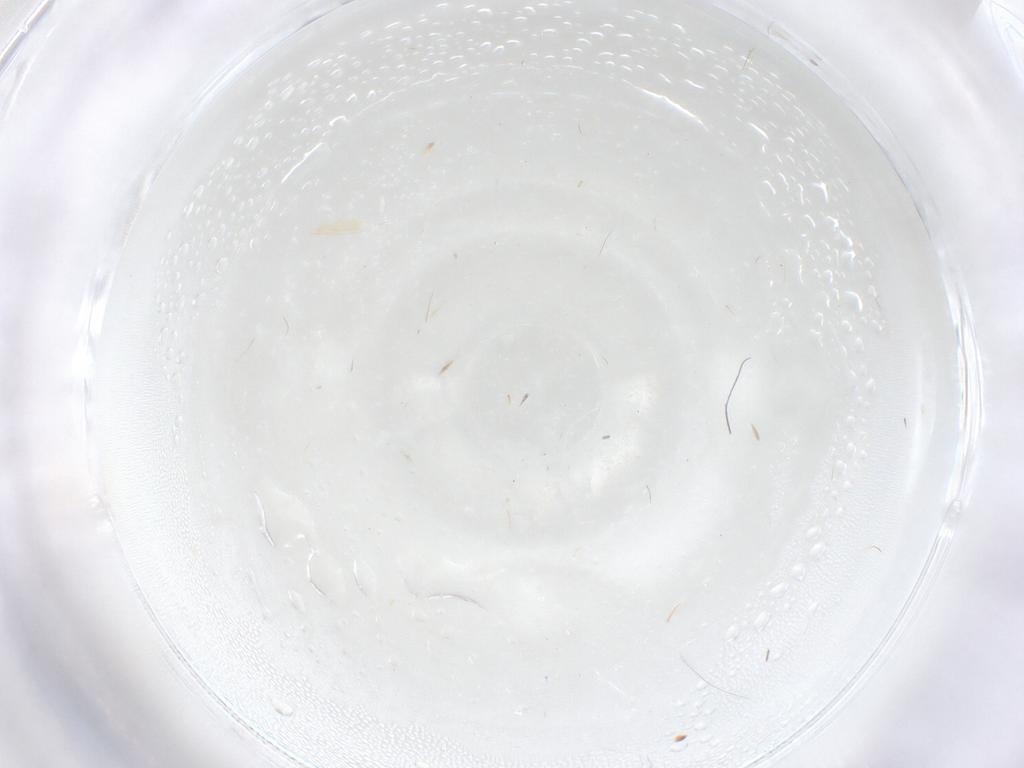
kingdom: Animalia
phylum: Arthropoda
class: Insecta
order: Diptera
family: Cecidomyiidae
